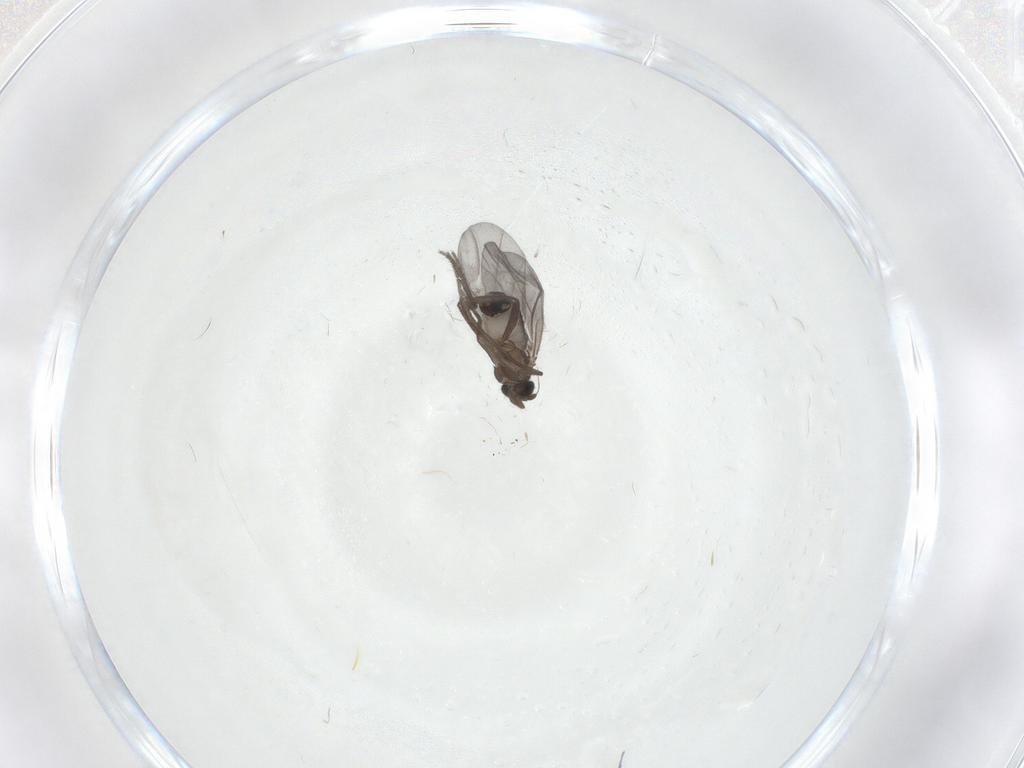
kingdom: Animalia
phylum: Arthropoda
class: Insecta
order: Diptera
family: Phoridae
